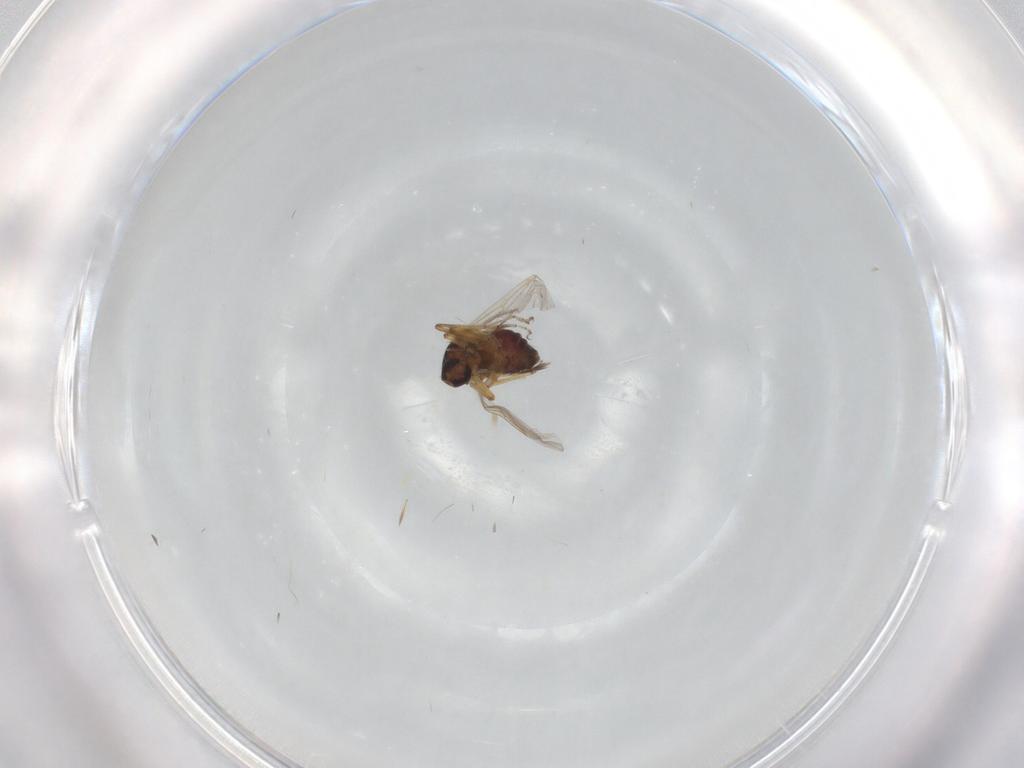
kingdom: Animalia
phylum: Arthropoda
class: Insecta
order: Diptera
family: Ceratopogonidae
